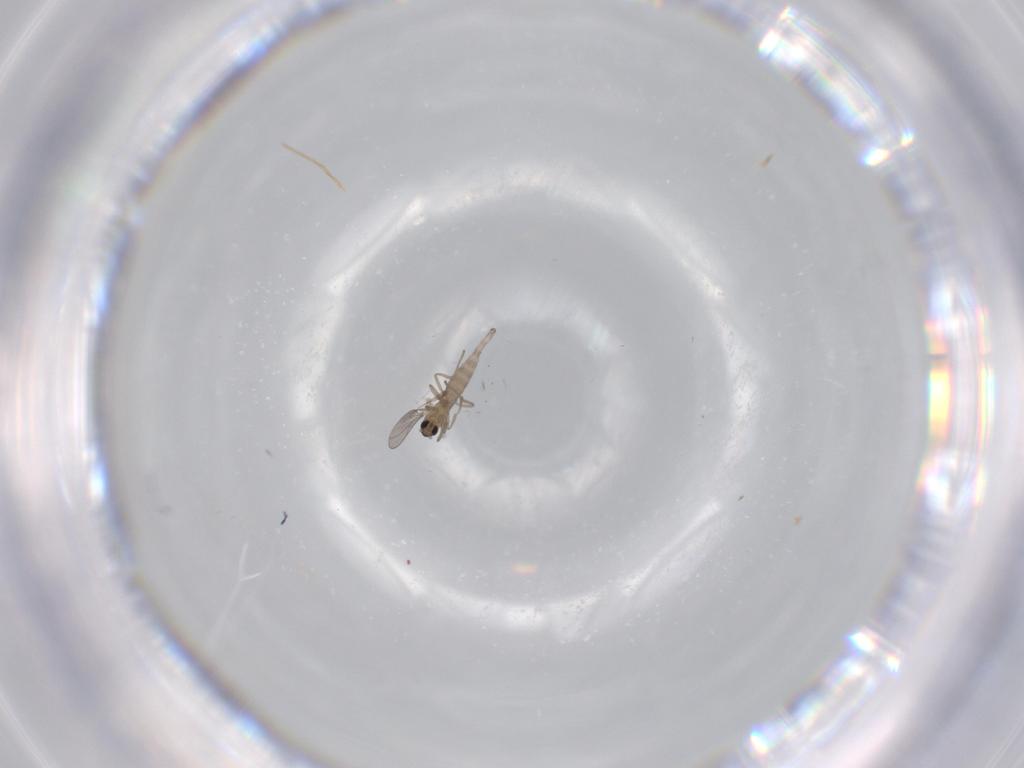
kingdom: Animalia
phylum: Arthropoda
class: Insecta
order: Diptera
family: Cecidomyiidae
